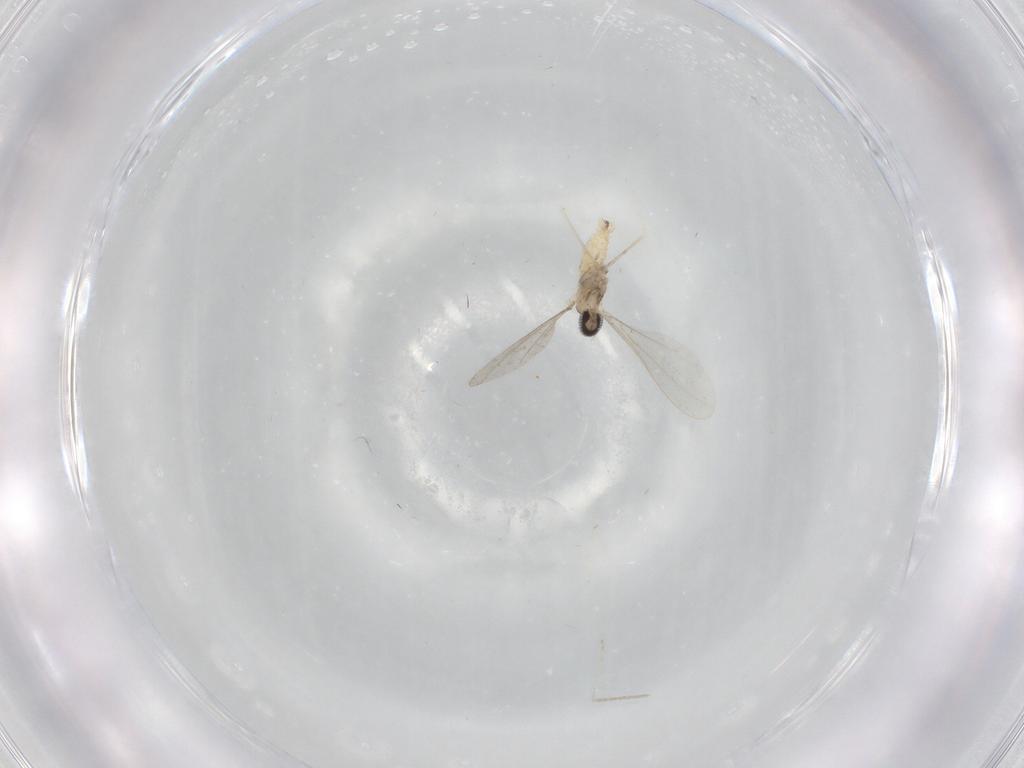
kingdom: Animalia
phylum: Arthropoda
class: Insecta
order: Diptera
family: Cecidomyiidae
